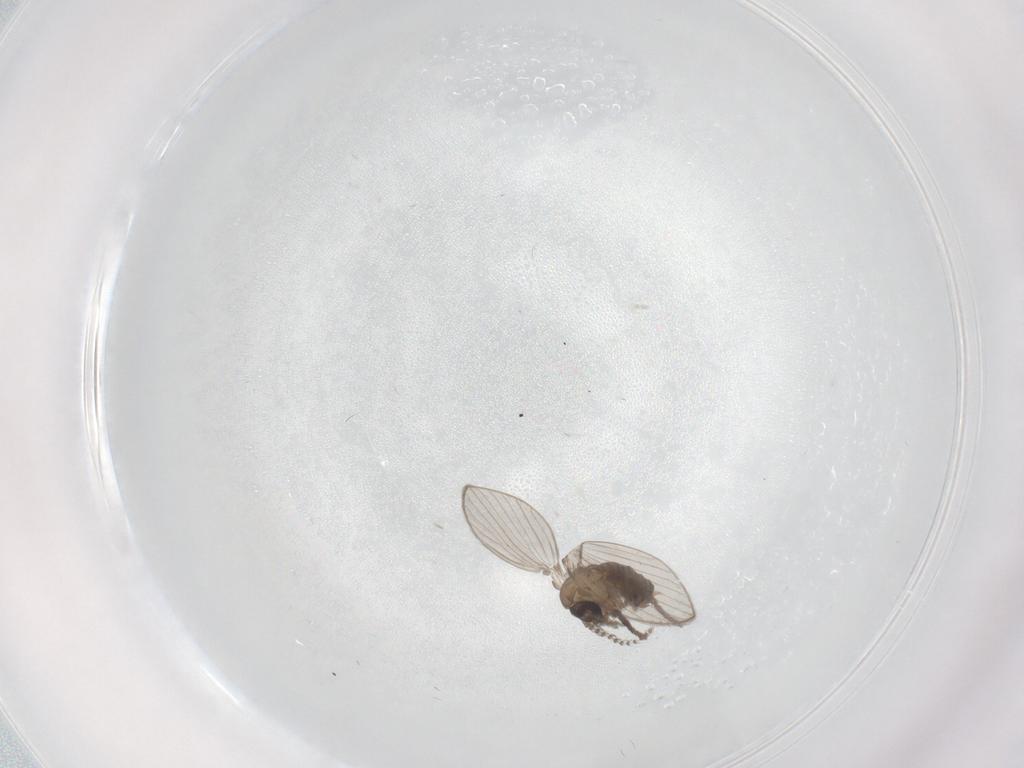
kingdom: Animalia
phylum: Arthropoda
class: Insecta
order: Diptera
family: Psychodidae
